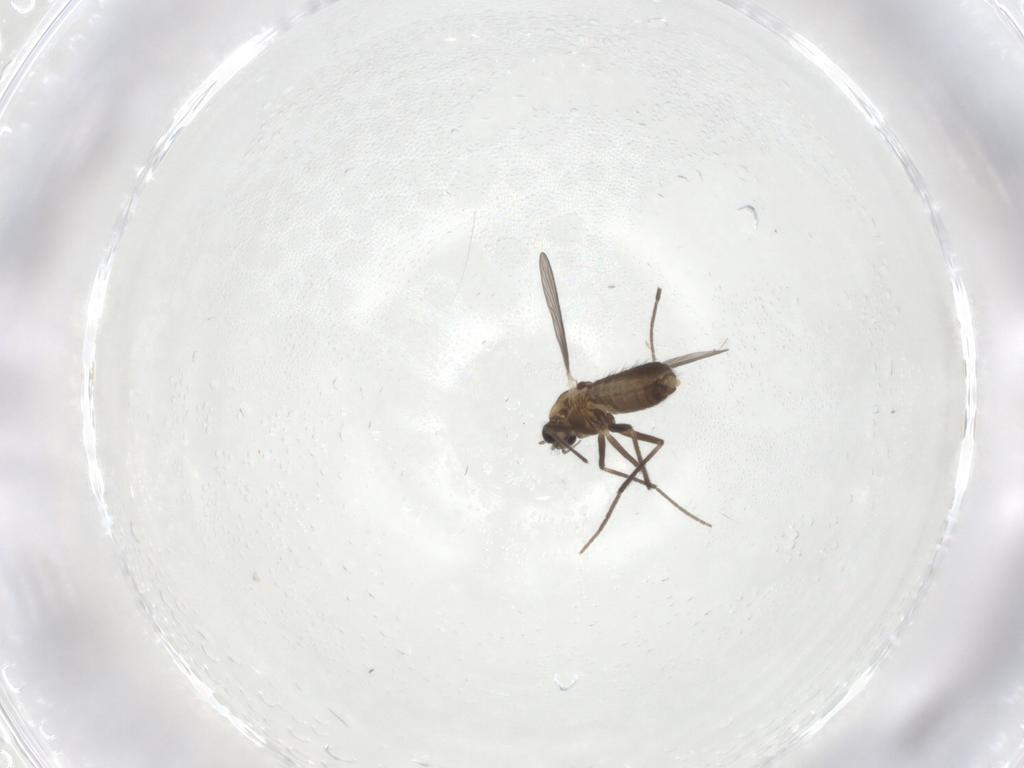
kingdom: Animalia
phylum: Arthropoda
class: Insecta
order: Diptera
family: Chironomidae
